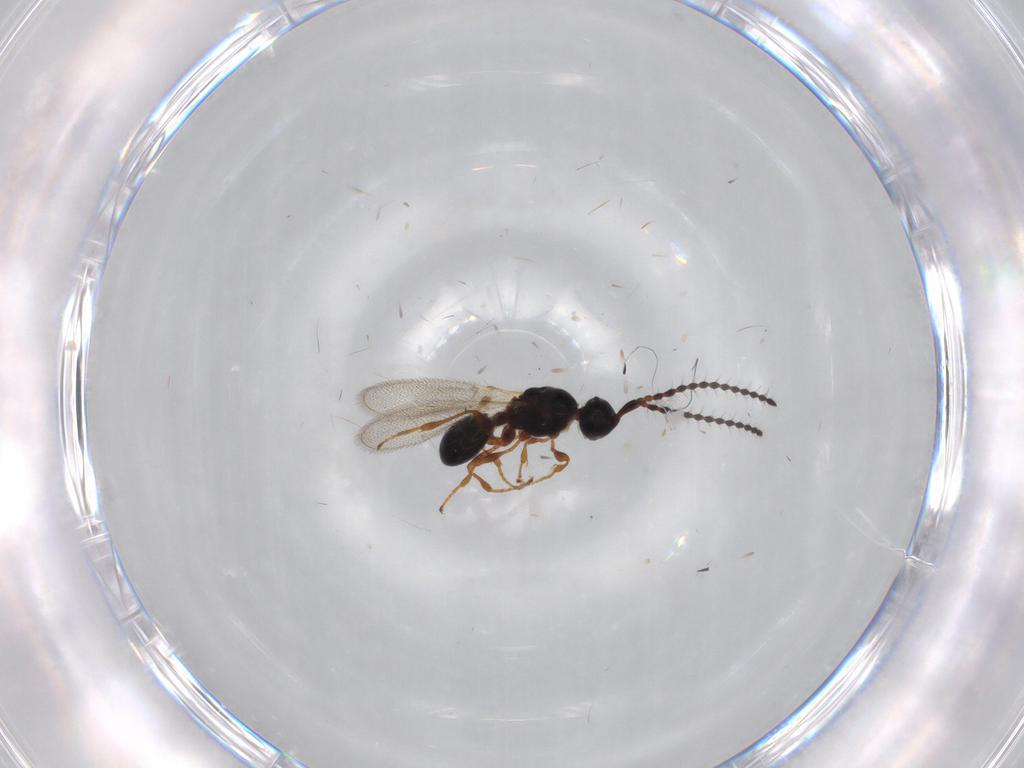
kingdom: Animalia
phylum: Arthropoda
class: Insecta
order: Hymenoptera
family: Diapriidae
